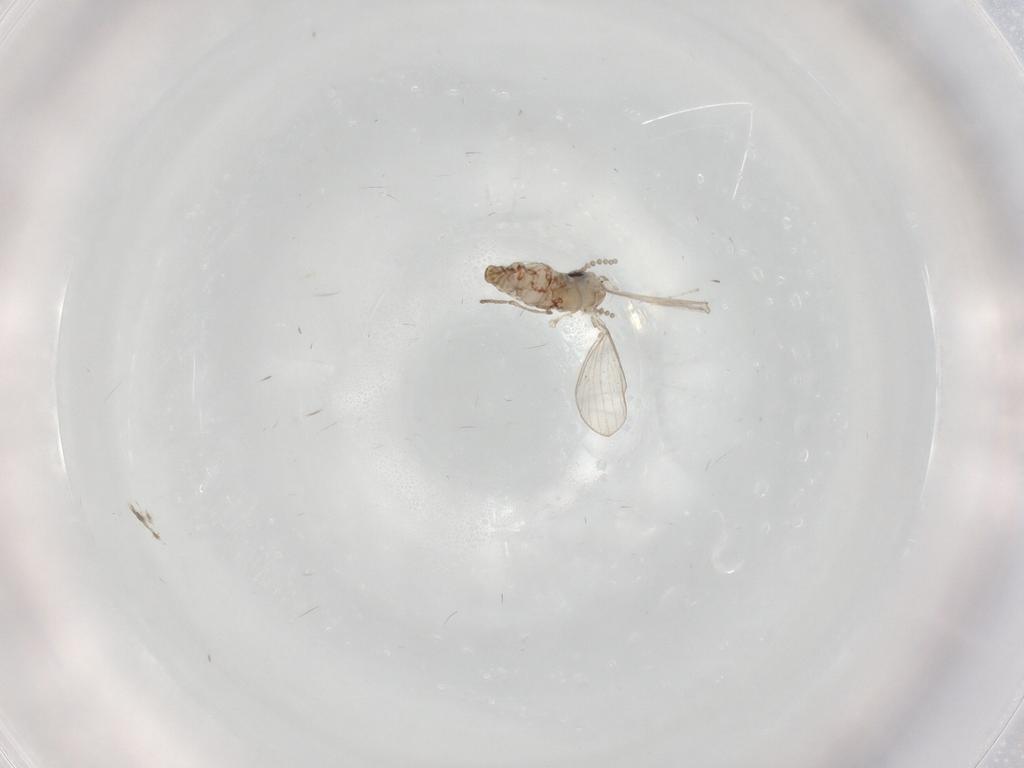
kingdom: Animalia
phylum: Arthropoda
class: Insecta
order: Diptera
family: Psychodidae
